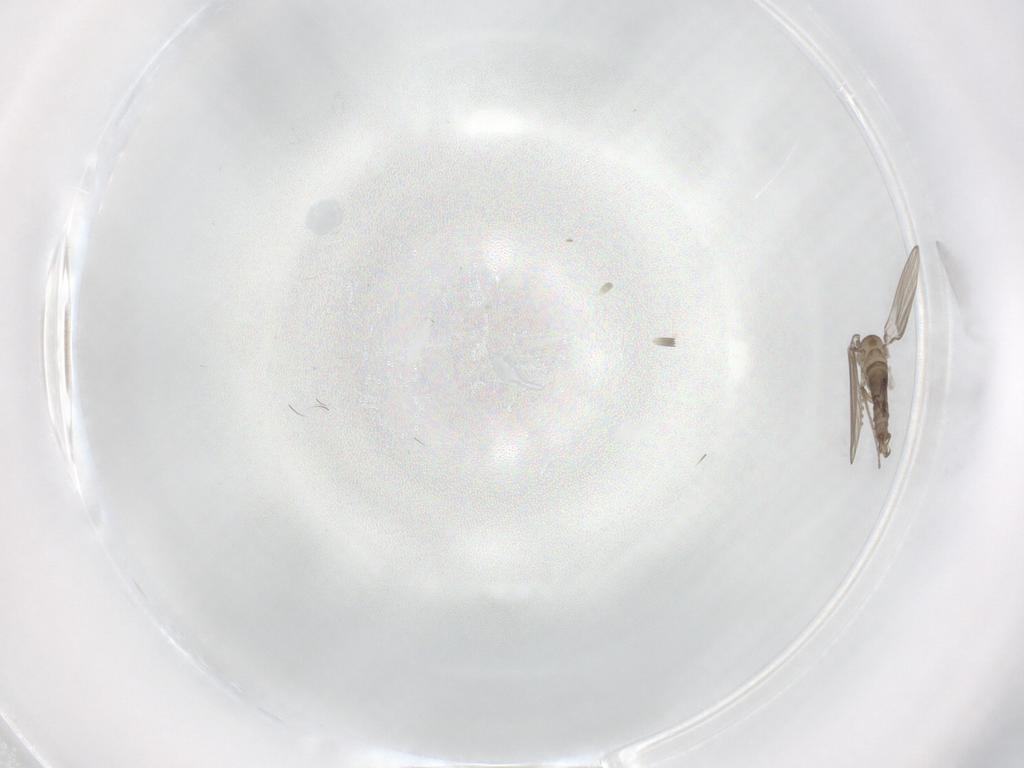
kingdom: Animalia
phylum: Arthropoda
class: Insecta
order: Diptera
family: Psychodidae
